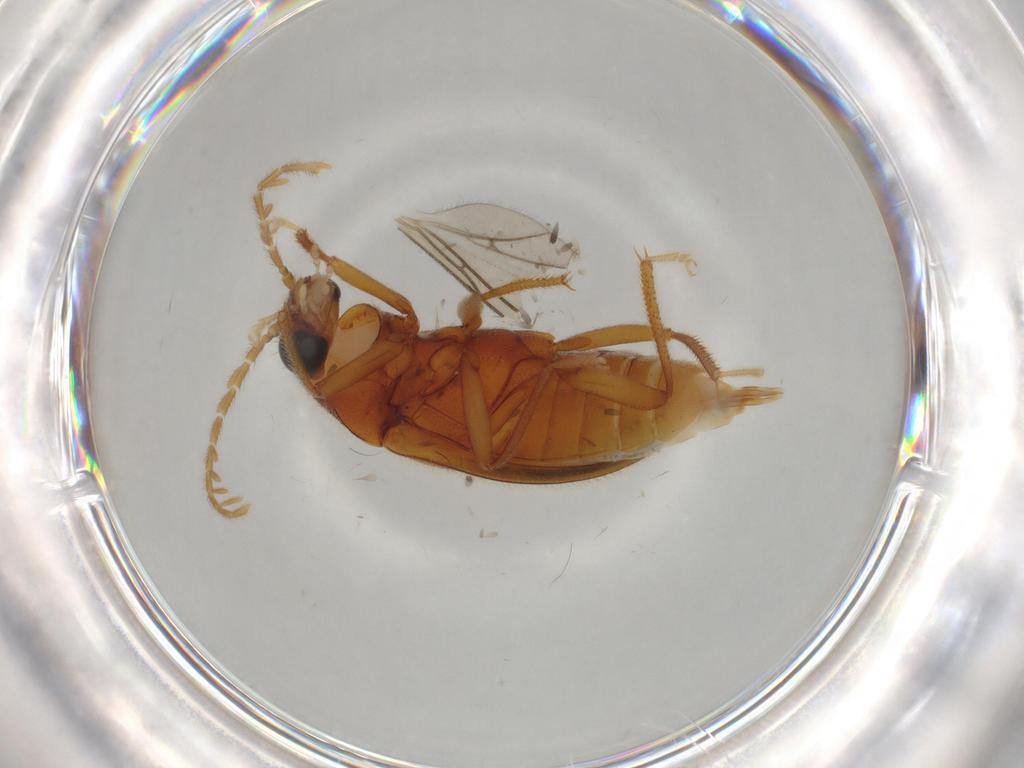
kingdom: Animalia
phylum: Arthropoda
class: Insecta
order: Coleoptera
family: Ptilodactylidae
